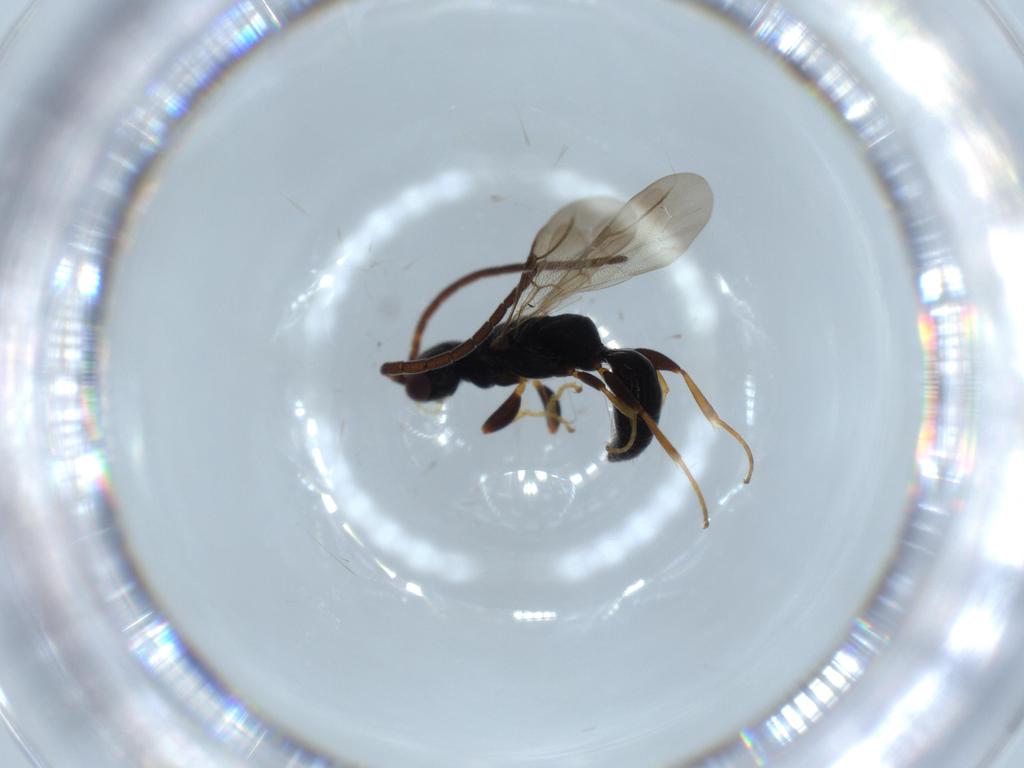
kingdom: Animalia
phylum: Arthropoda
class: Insecta
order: Hymenoptera
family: Bethylidae
